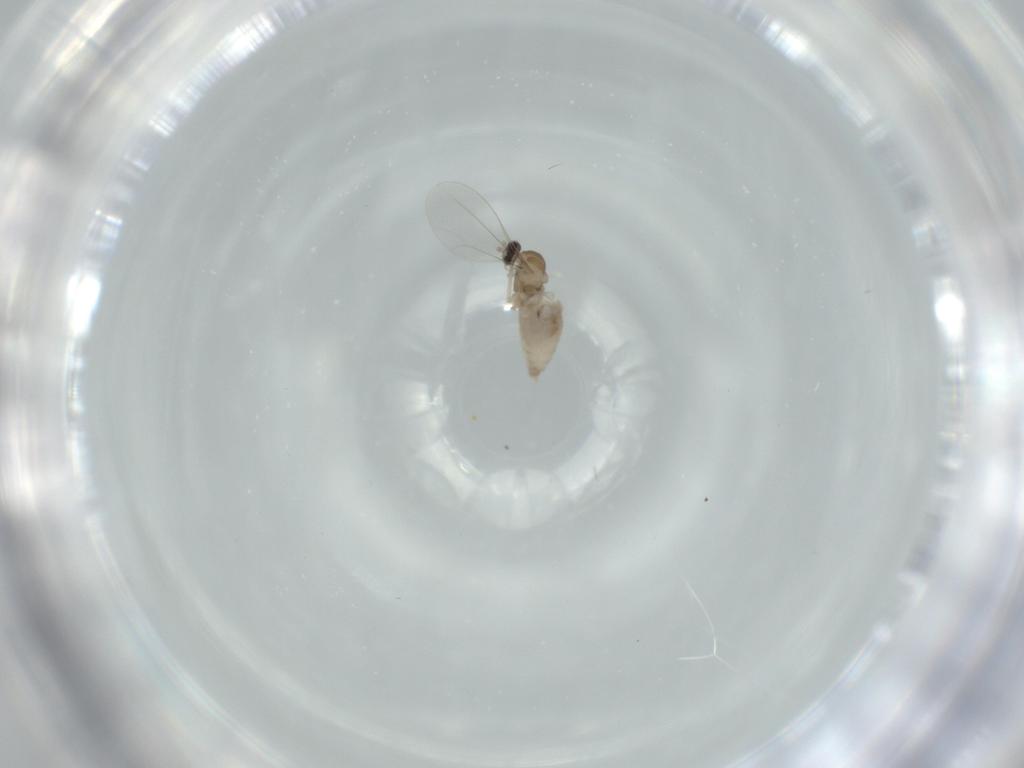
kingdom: Animalia
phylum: Arthropoda
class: Insecta
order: Diptera
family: Cecidomyiidae
